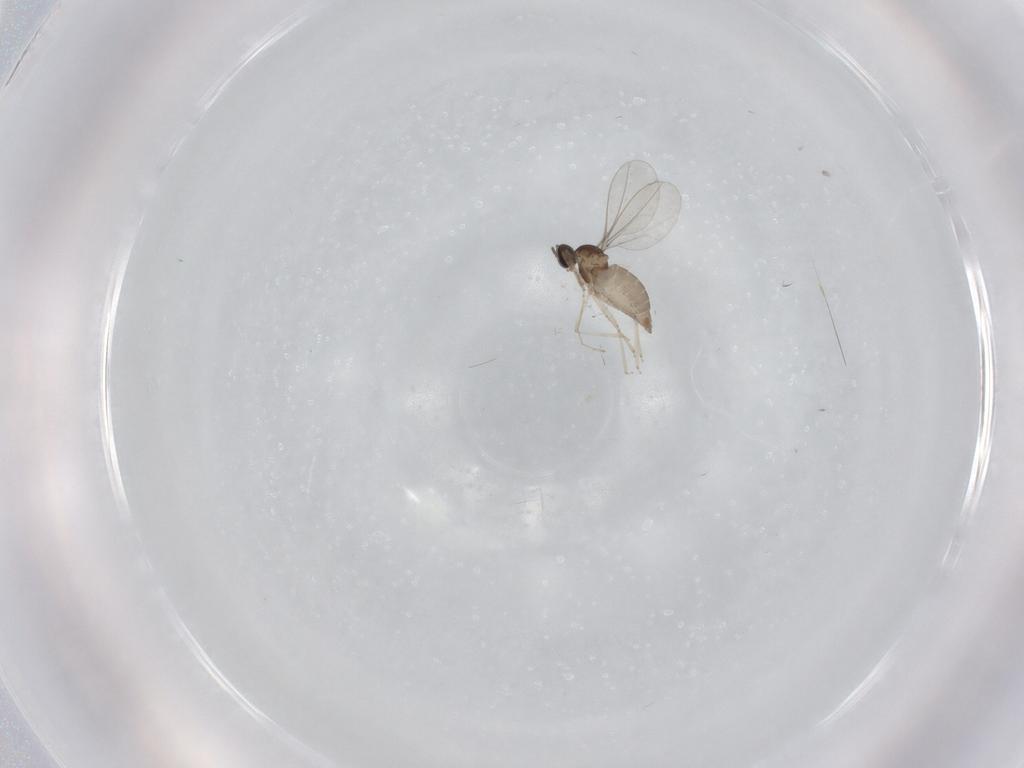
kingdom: Animalia
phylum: Arthropoda
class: Insecta
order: Diptera
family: Cecidomyiidae
